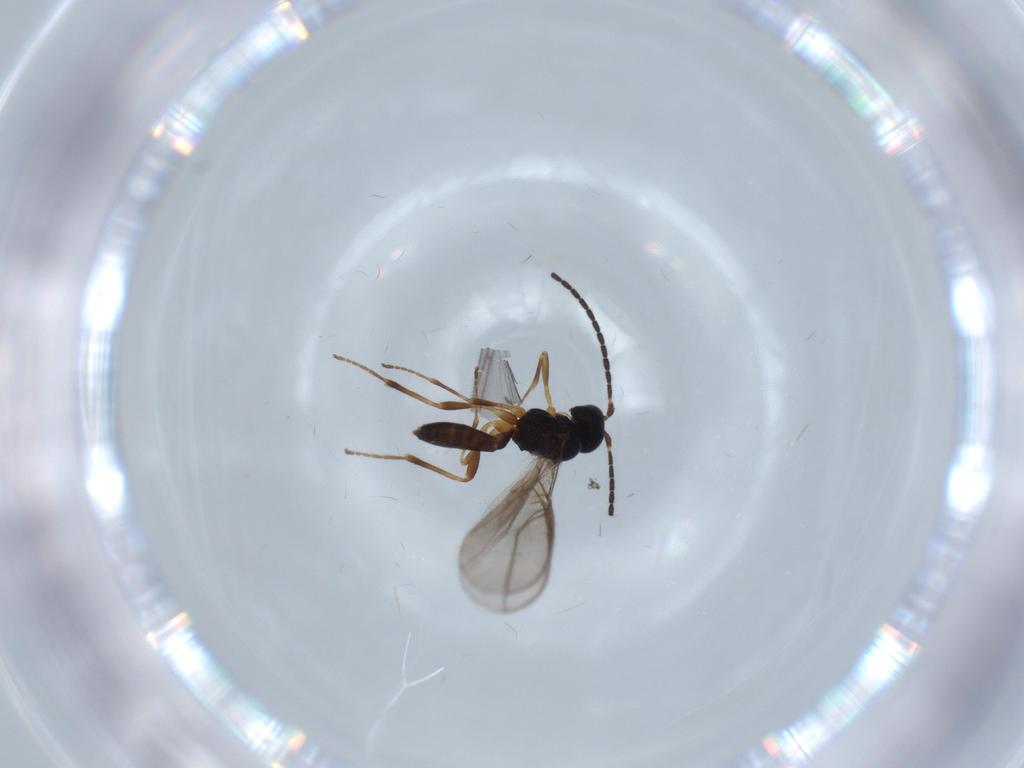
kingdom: Animalia
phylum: Arthropoda
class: Insecta
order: Hymenoptera
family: Braconidae
